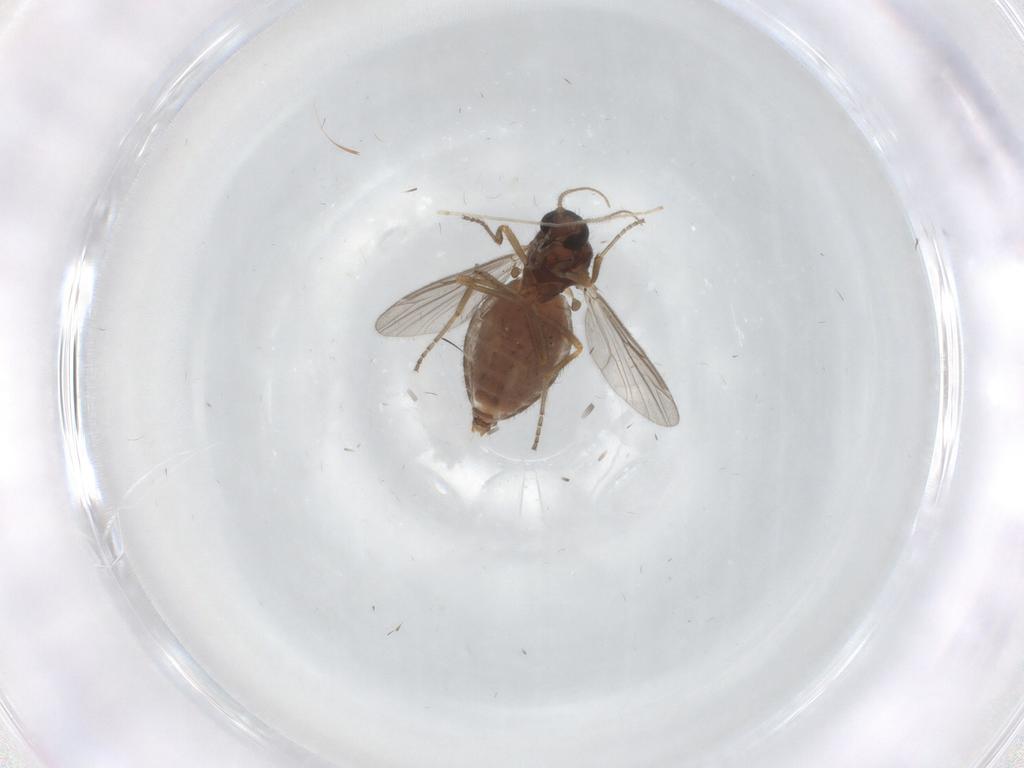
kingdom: Animalia
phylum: Arthropoda
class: Insecta
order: Diptera
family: Ceratopogonidae
